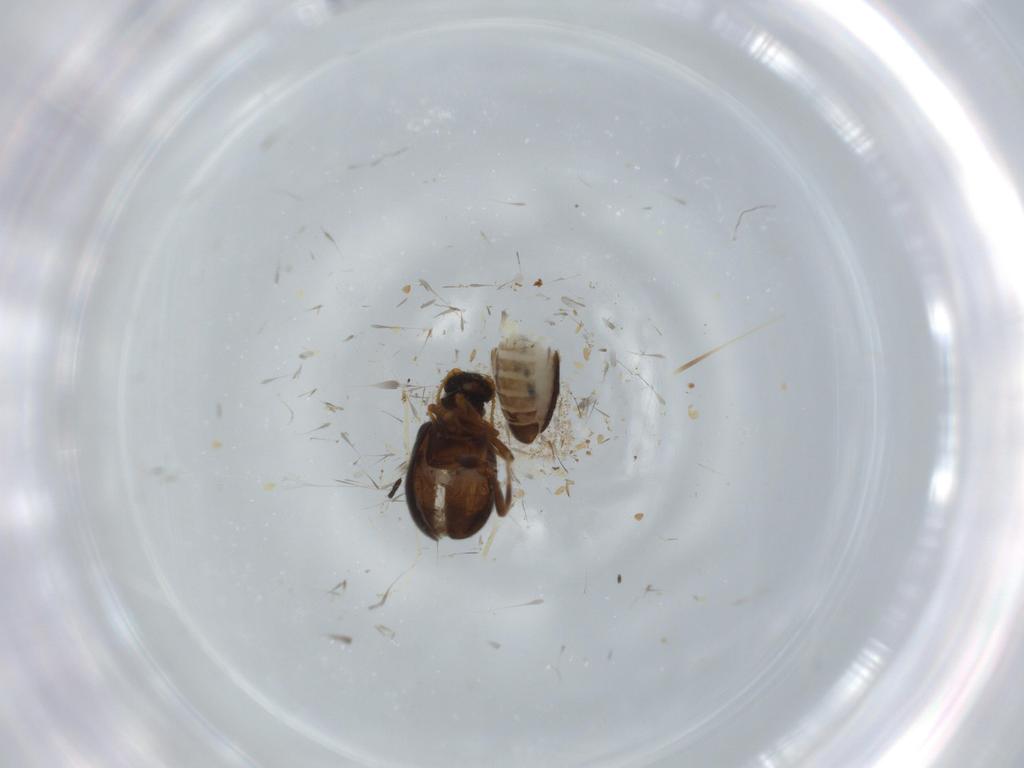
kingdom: Animalia
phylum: Arthropoda
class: Insecta
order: Coleoptera
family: Aderidae
